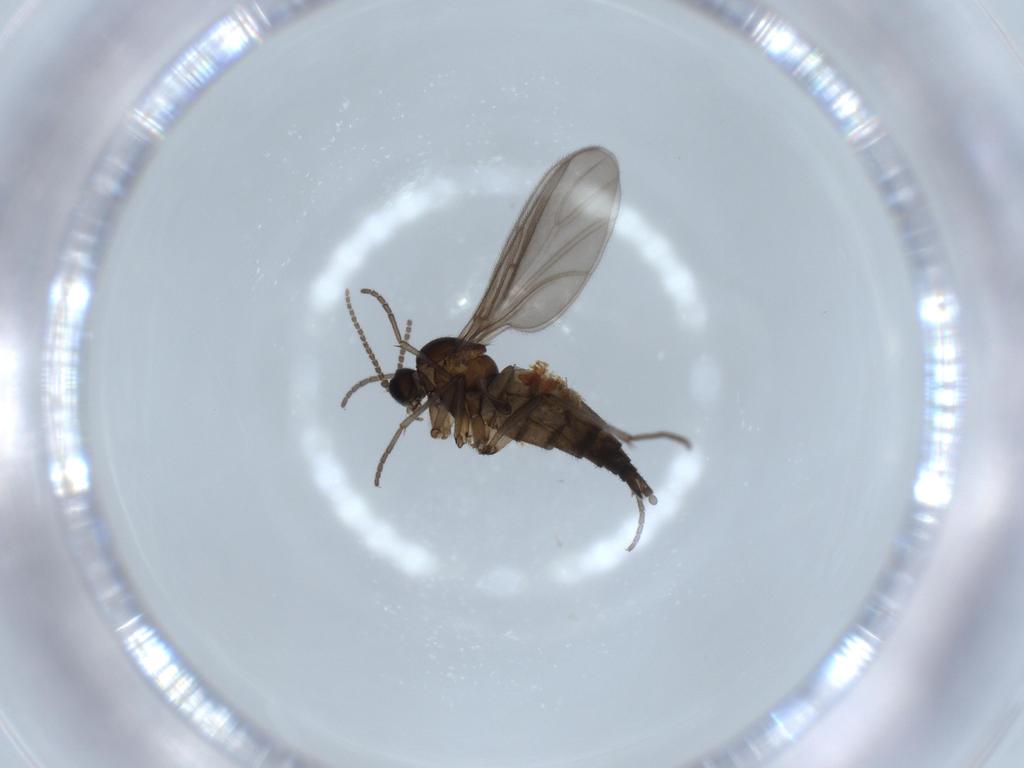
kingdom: Animalia
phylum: Arthropoda
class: Insecta
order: Diptera
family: Sciaridae
